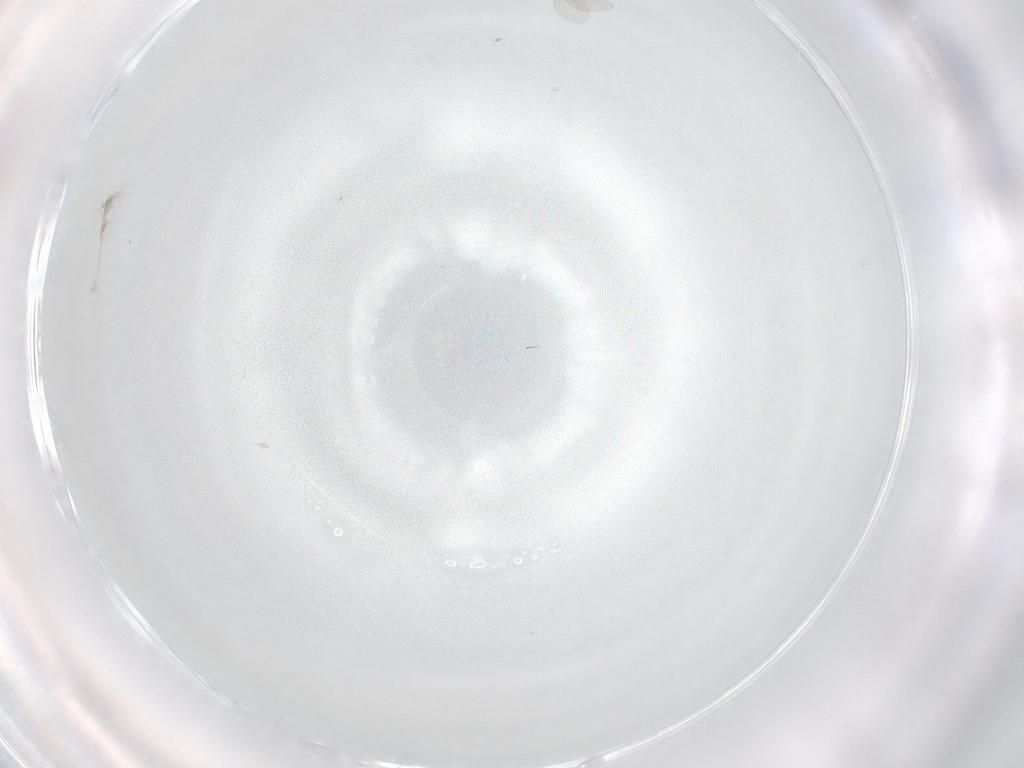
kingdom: Animalia
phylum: Arthropoda
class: Insecta
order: Diptera
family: Cecidomyiidae
